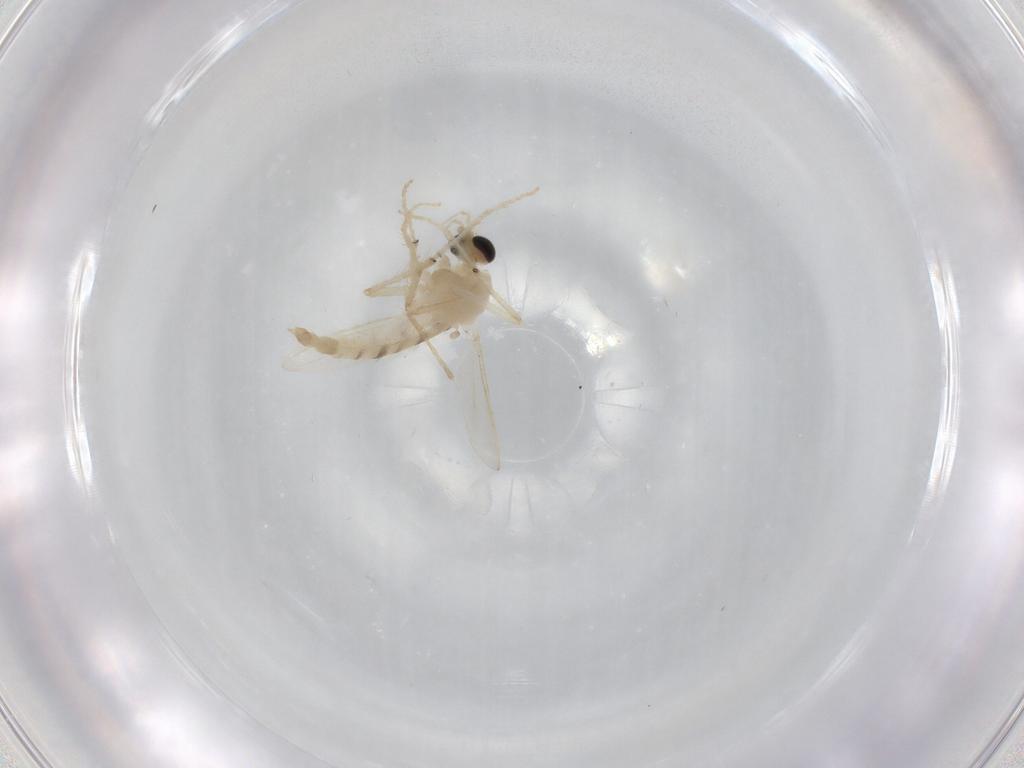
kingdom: Animalia
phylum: Arthropoda
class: Insecta
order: Diptera
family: Chironomidae
